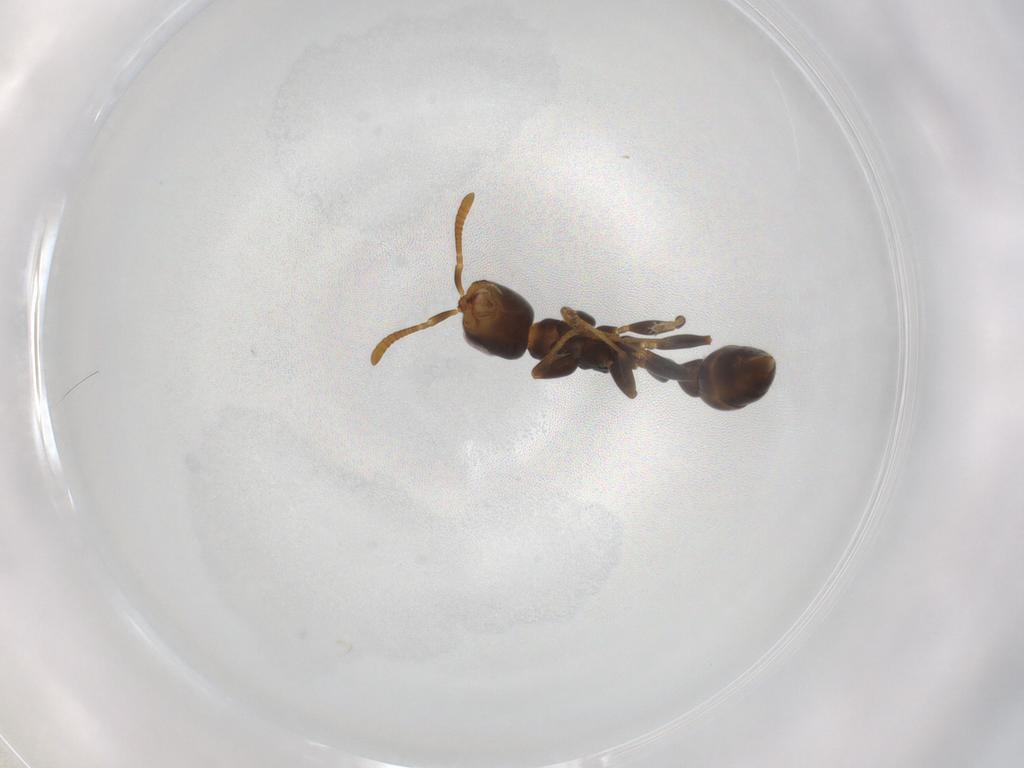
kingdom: Animalia
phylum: Arthropoda
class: Insecta
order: Hymenoptera
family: Formicidae
